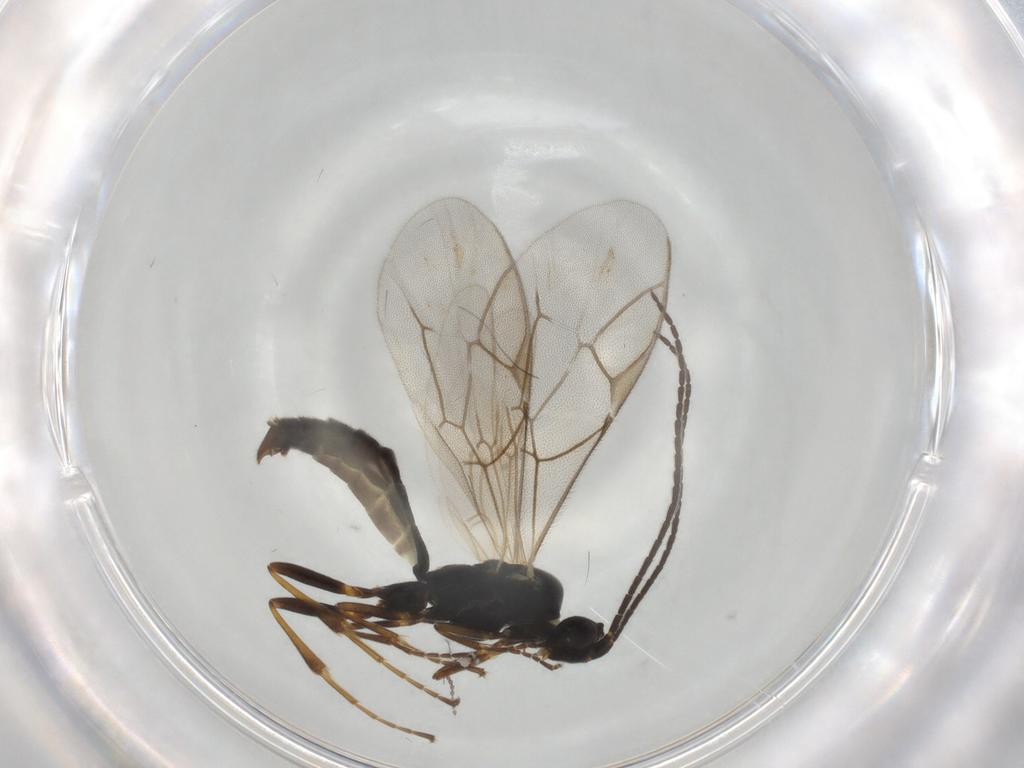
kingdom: Animalia
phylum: Arthropoda
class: Insecta
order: Hymenoptera
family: Ichneumonidae
